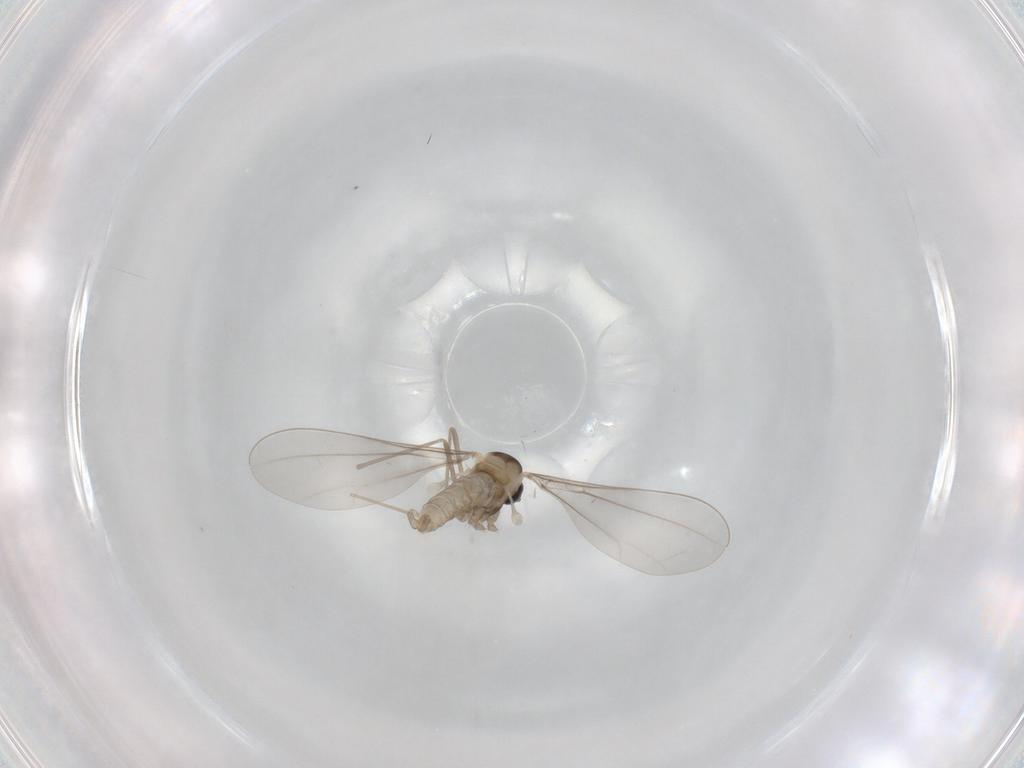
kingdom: Animalia
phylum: Arthropoda
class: Insecta
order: Diptera
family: Cecidomyiidae
